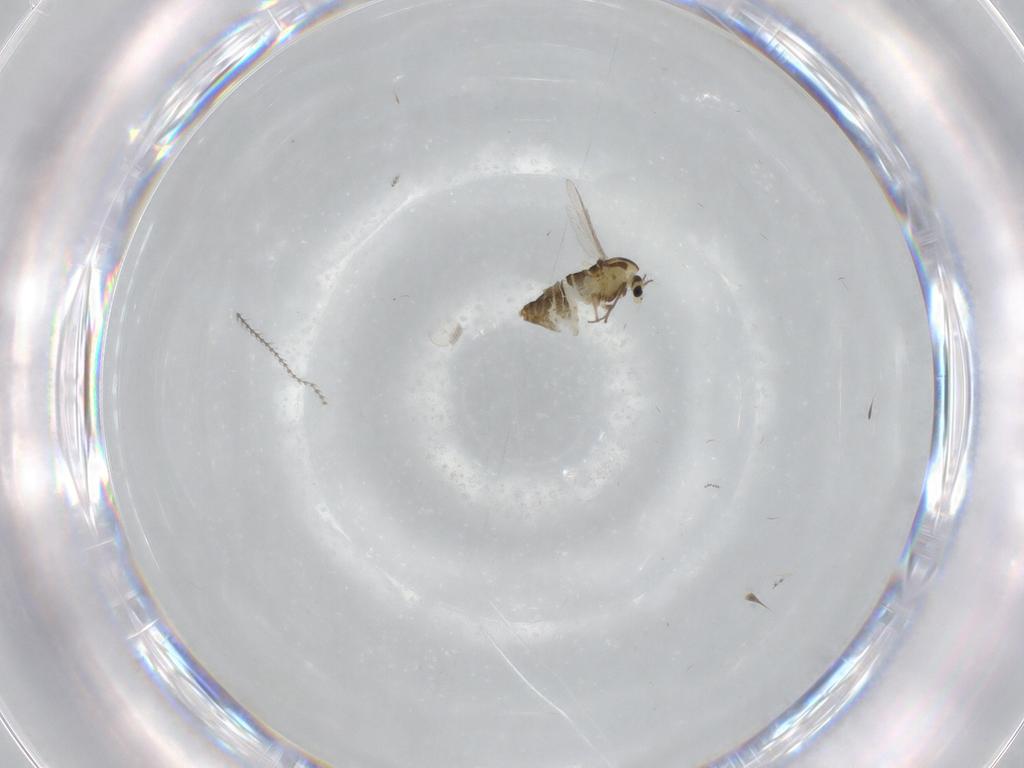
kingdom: Animalia
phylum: Arthropoda
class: Insecta
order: Diptera
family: Chironomidae
